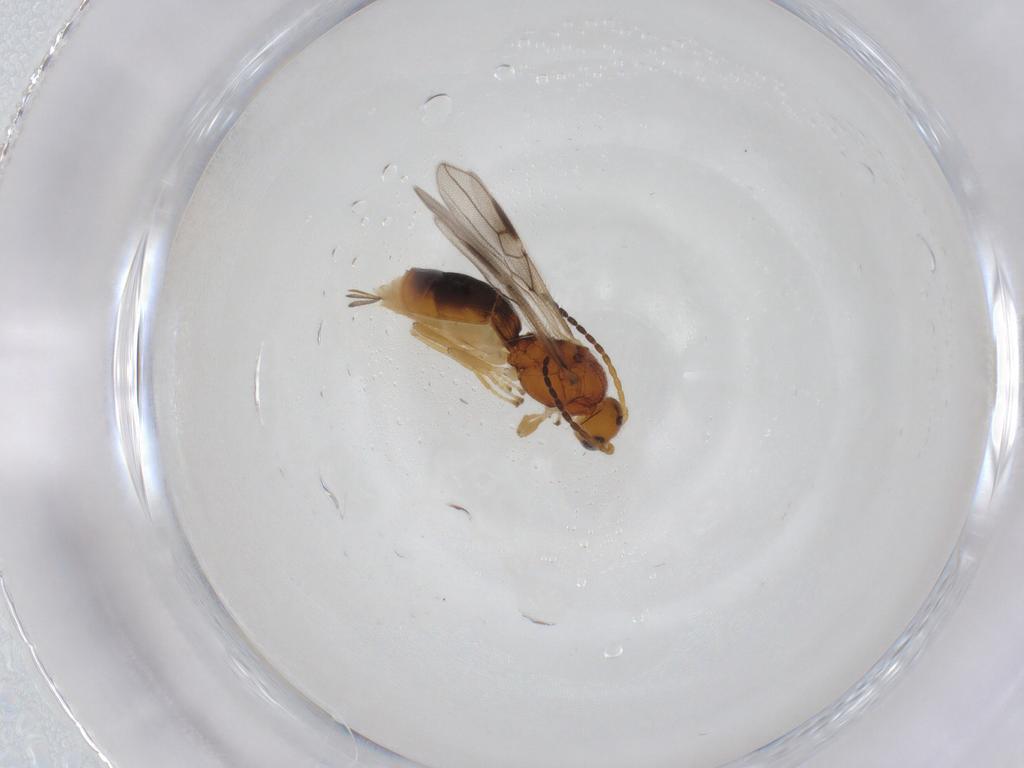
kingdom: Animalia
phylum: Arthropoda
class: Insecta
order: Hymenoptera
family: Braconidae
